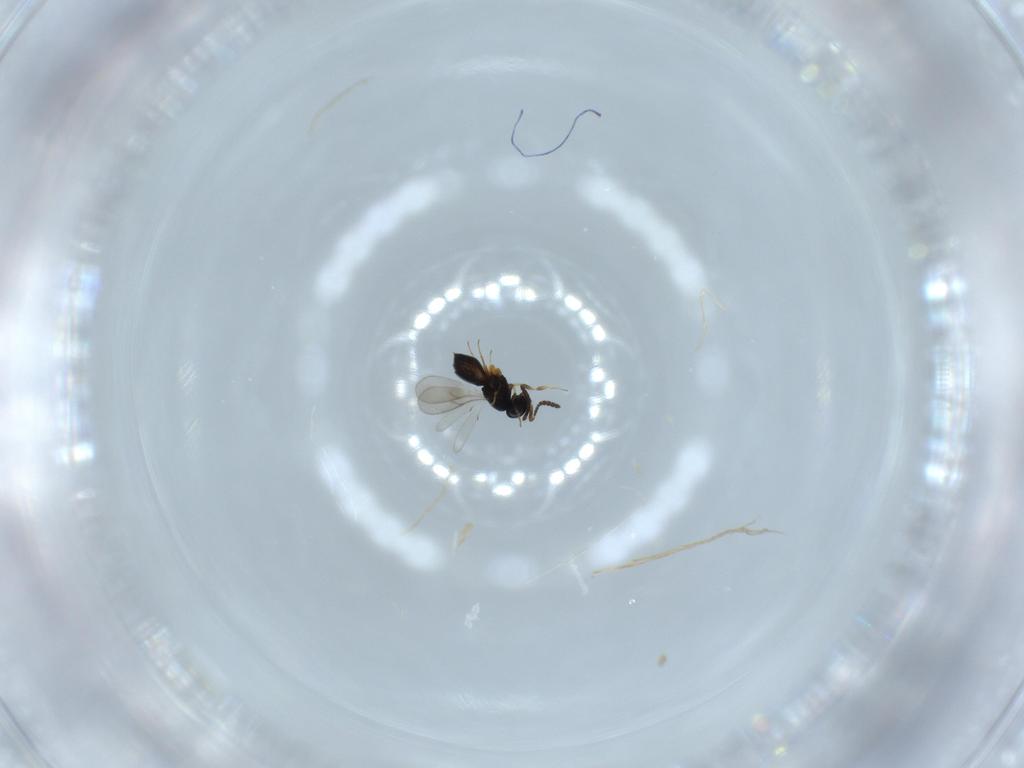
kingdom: Animalia
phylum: Arthropoda
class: Insecta
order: Hymenoptera
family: Scelionidae
